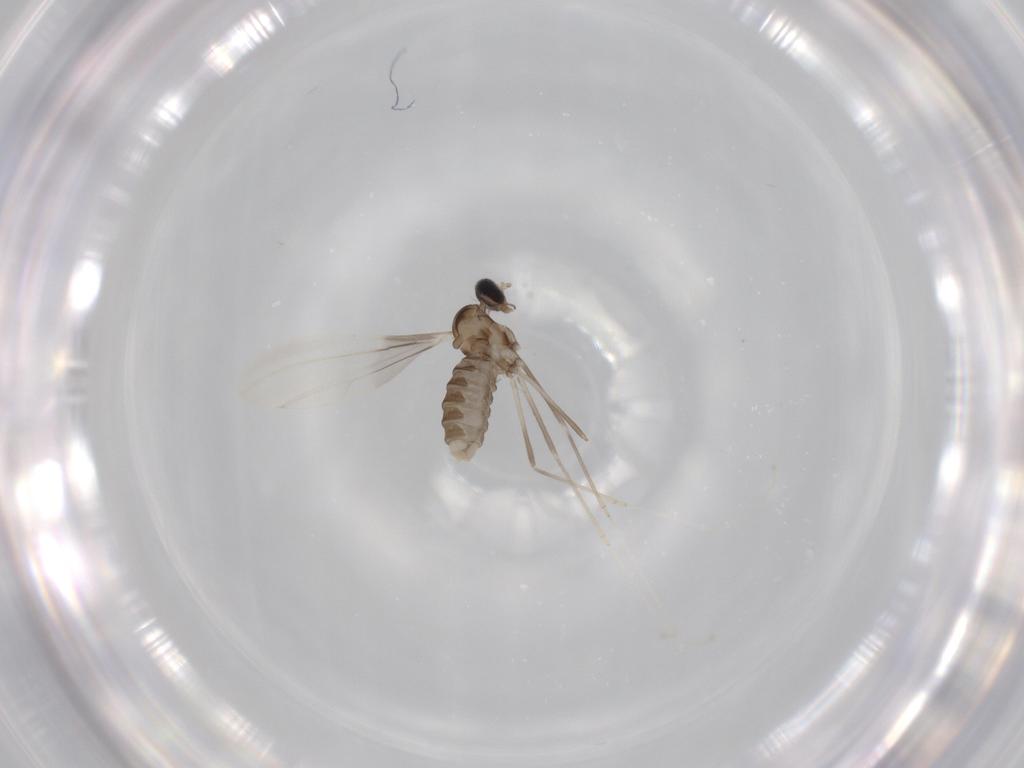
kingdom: Animalia
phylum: Arthropoda
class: Insecta
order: Diptera
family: Cecidomyiidae
